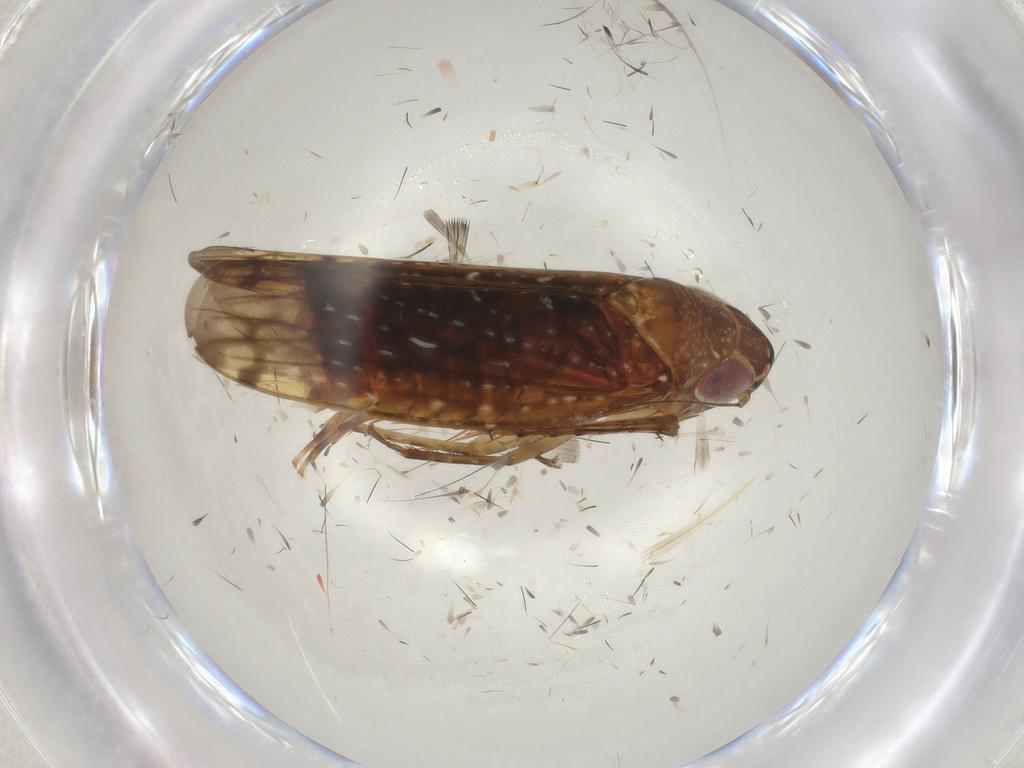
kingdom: Animalia
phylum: Arthropoda
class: Insecta
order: Hemiptera
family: Cicadellidae
